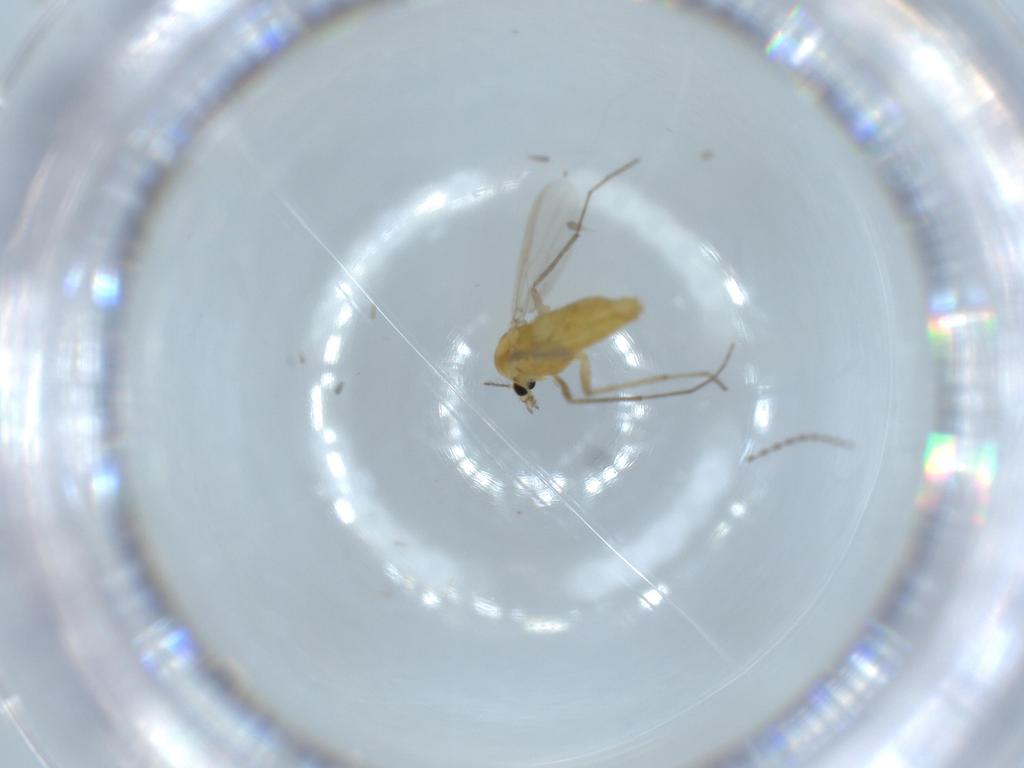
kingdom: Animalia
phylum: Arthropoda
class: Insecta
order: Diptera
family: Chironomidae
